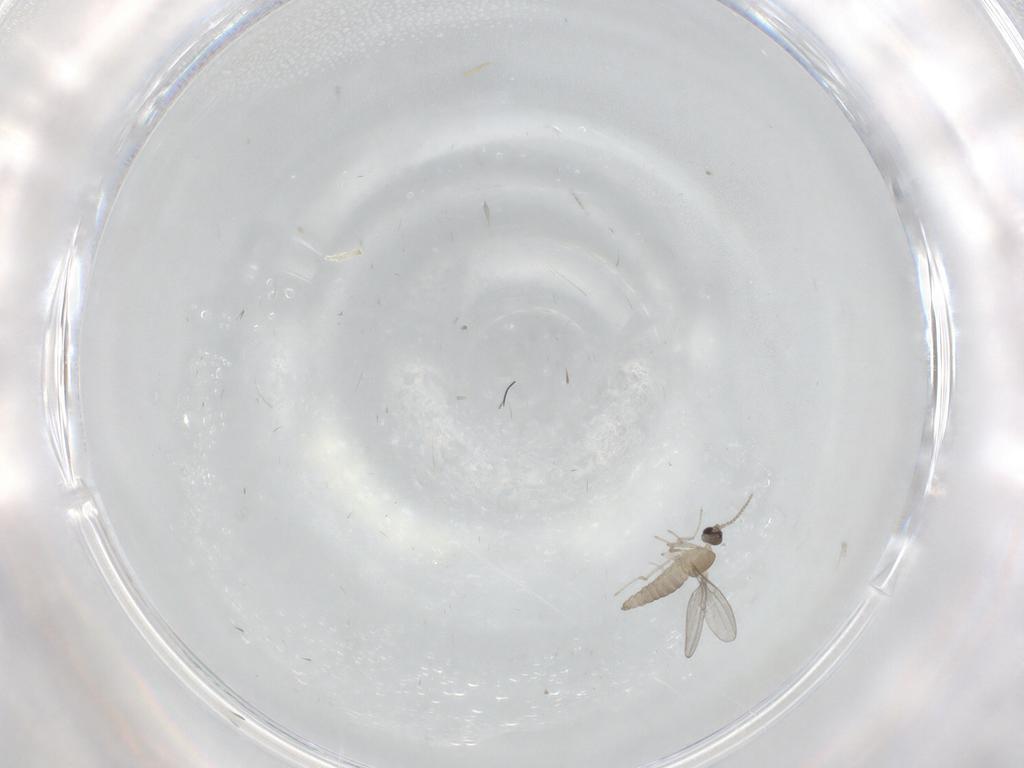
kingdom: Animalia
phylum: Arthropoda
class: Insecta
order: Diptera
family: Cecidomyiidae
